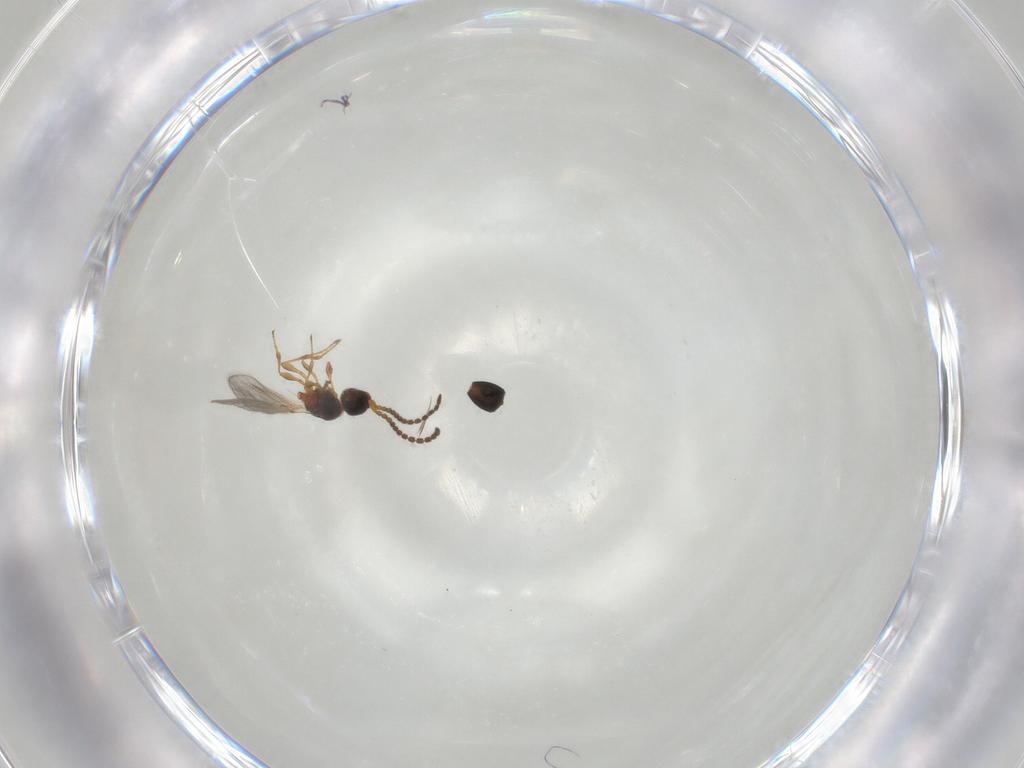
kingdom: Animalia
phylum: Arthropoda
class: Insecta
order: Hymenoptera
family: Diapriidae
